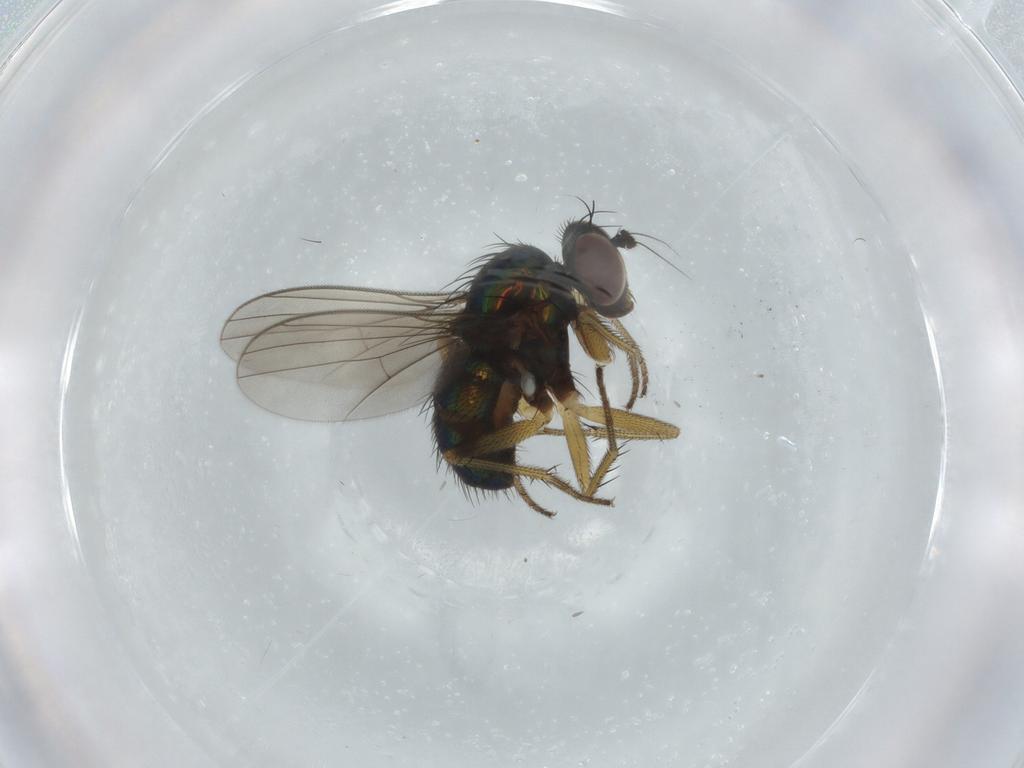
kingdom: Animalia
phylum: Arthropoda
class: Insecta
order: Diptera
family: Dolichopodidae
